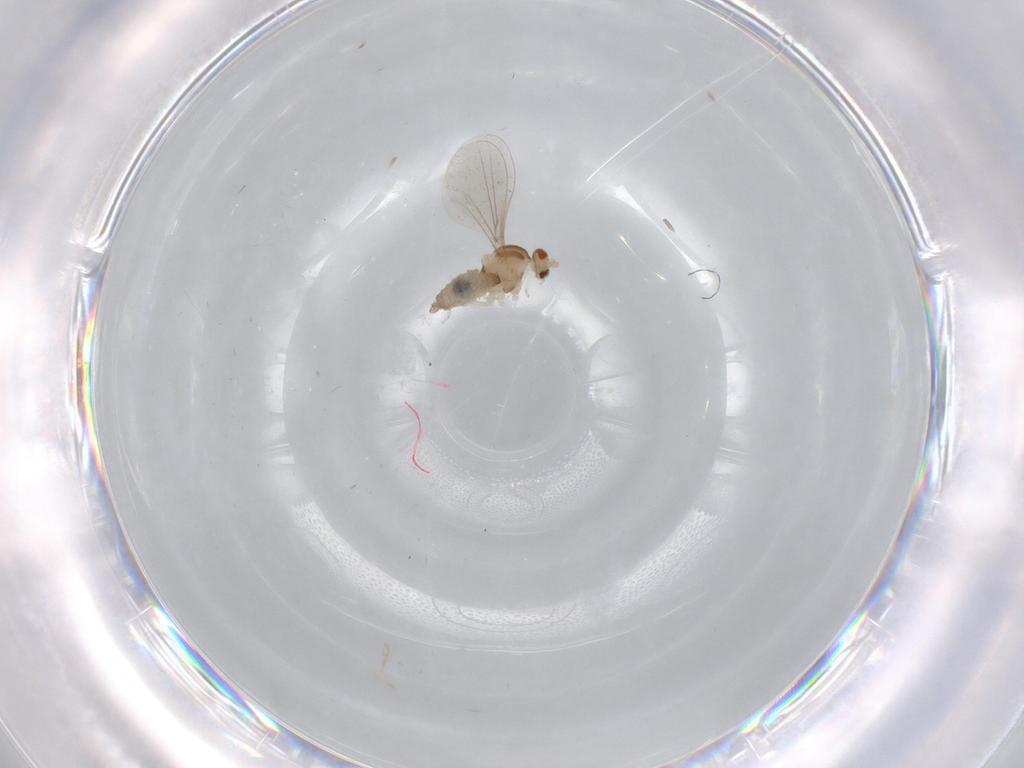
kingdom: Animalia
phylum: Arthropoda
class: Insecta
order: Diptera
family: Cecidomyiidae
